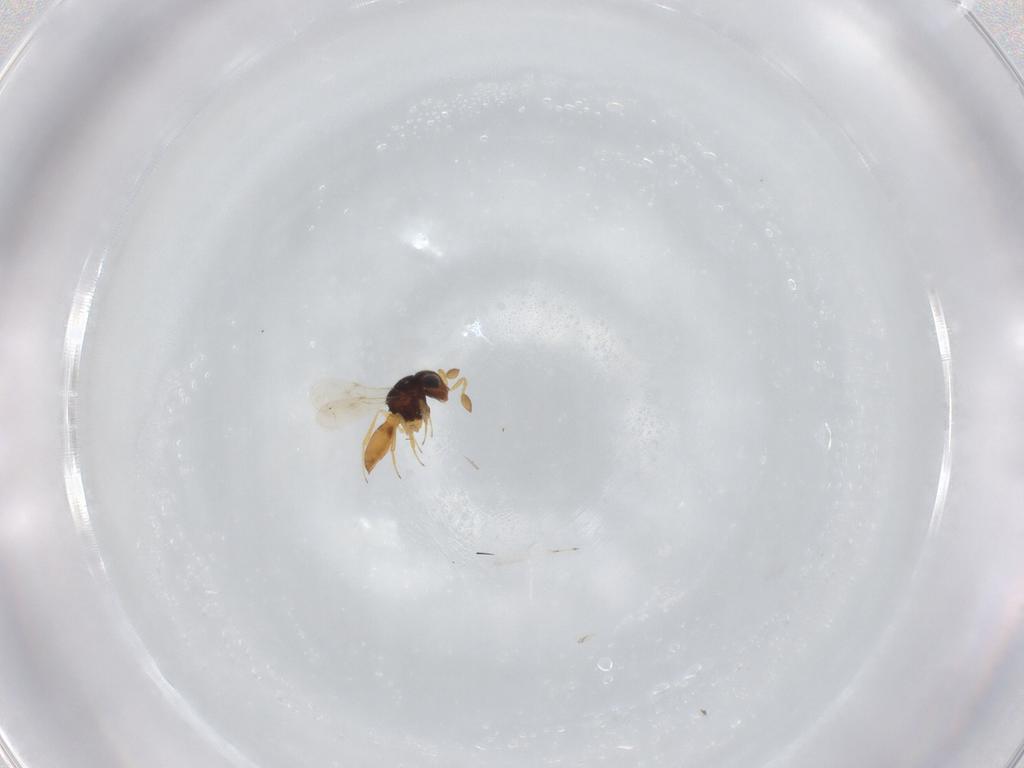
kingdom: Animalia
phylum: Arthropoda
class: Insecta
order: Hymenoptera
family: Scelionidae
